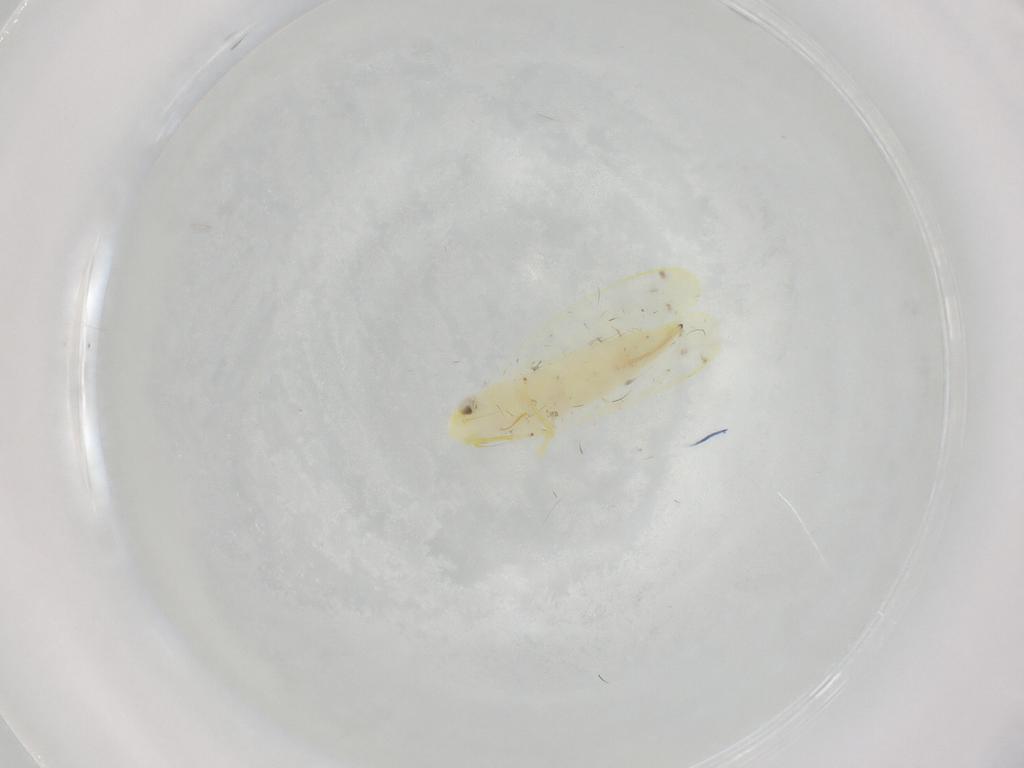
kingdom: Animalia
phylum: Arthropoda
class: Insecta
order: Hemiptera
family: Cicadellidae
